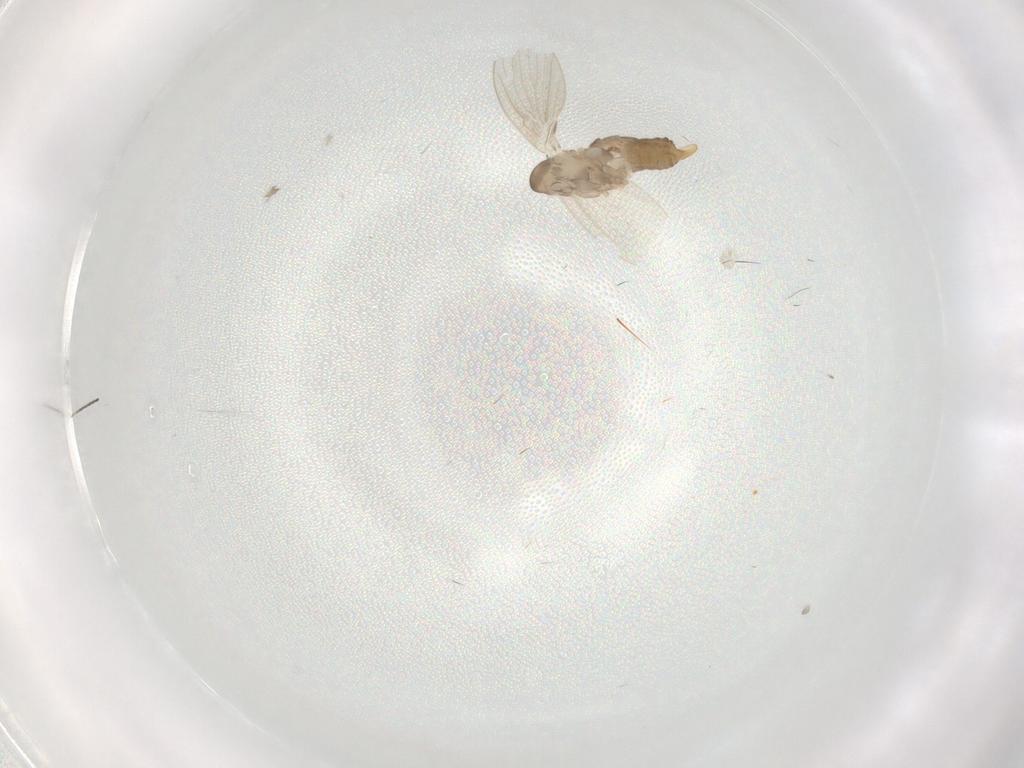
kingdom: Animalia
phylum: Arthropoda
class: Insecta
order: Diptera
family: Psychodidae
